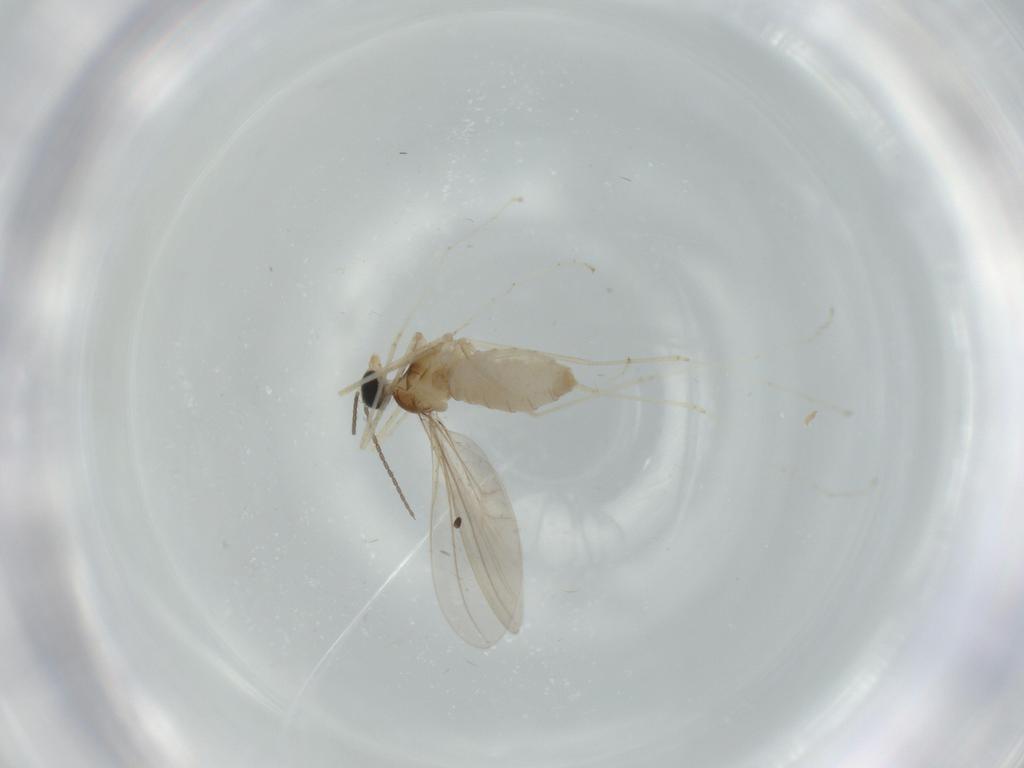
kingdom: Animalia
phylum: Arthropoda
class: Insecta
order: Diptera
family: Cecidomyiidae
